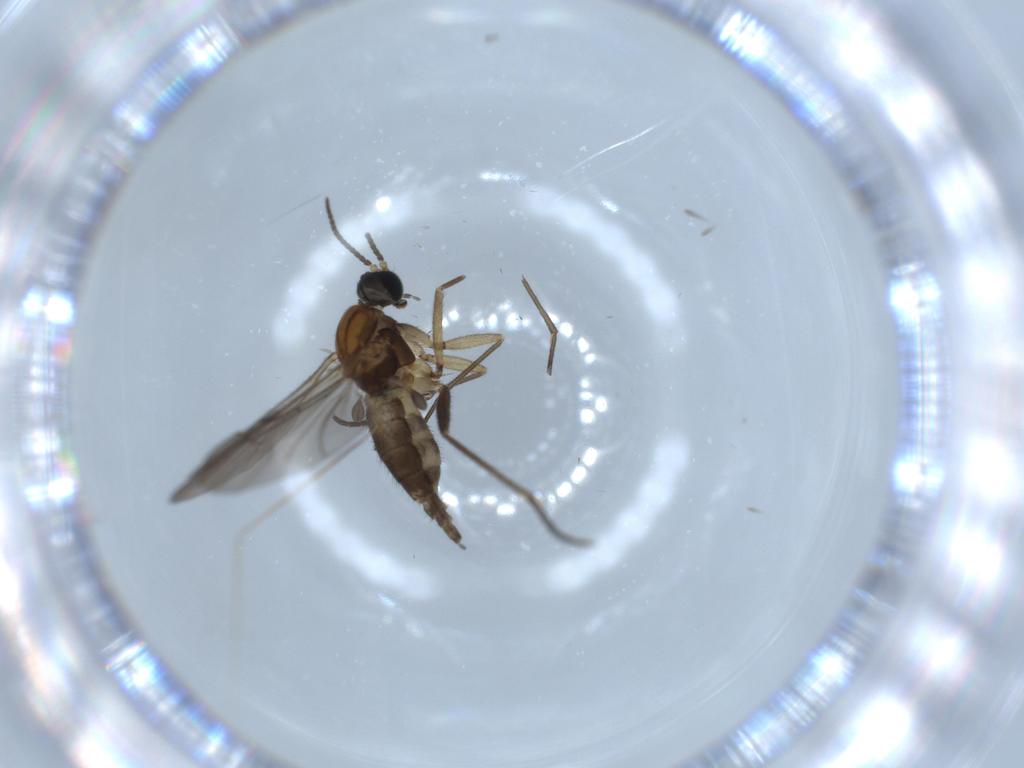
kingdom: Animalia
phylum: Arthropoda
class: Insecta
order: Diptera
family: Sciaridae
